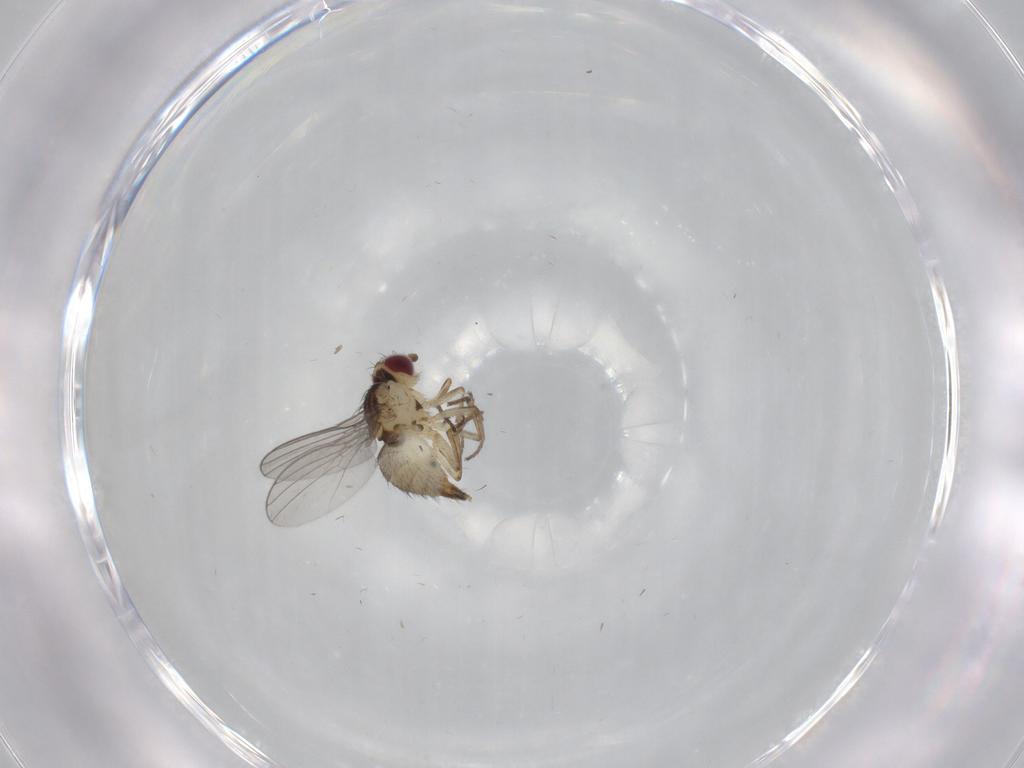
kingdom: Animalia
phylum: Arthropoda
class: Insecta
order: Diptera
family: Agromyzidae
